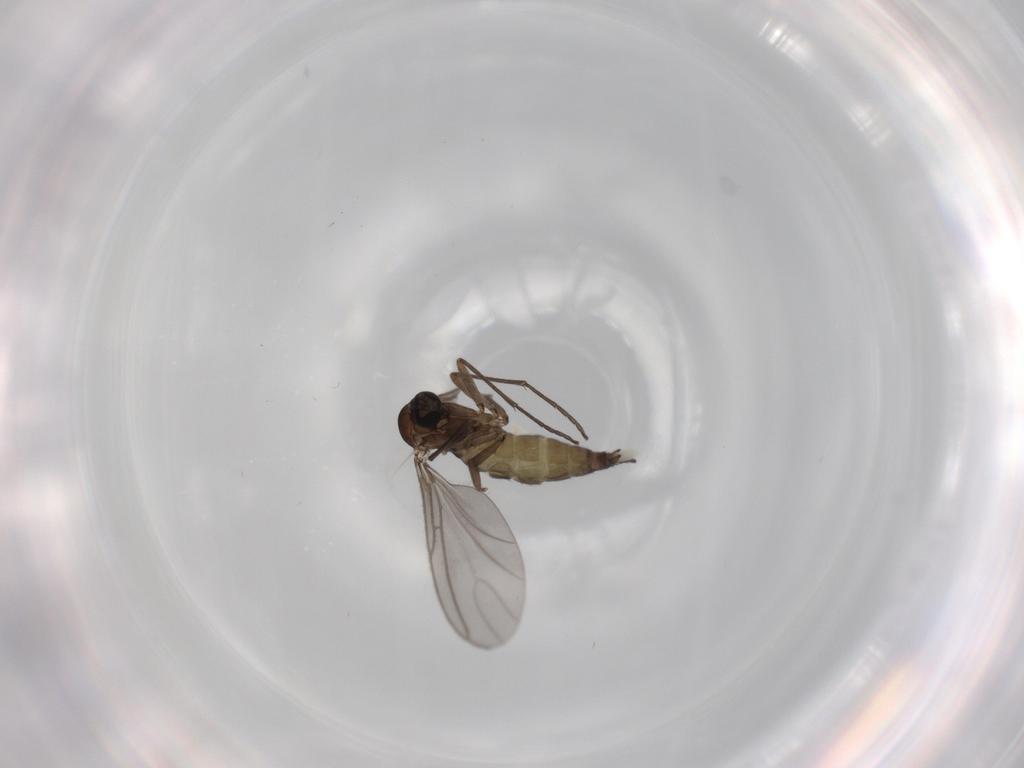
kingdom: Animalia
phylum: Arthropoda
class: Insecta
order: Diptera
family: Sciaridae
